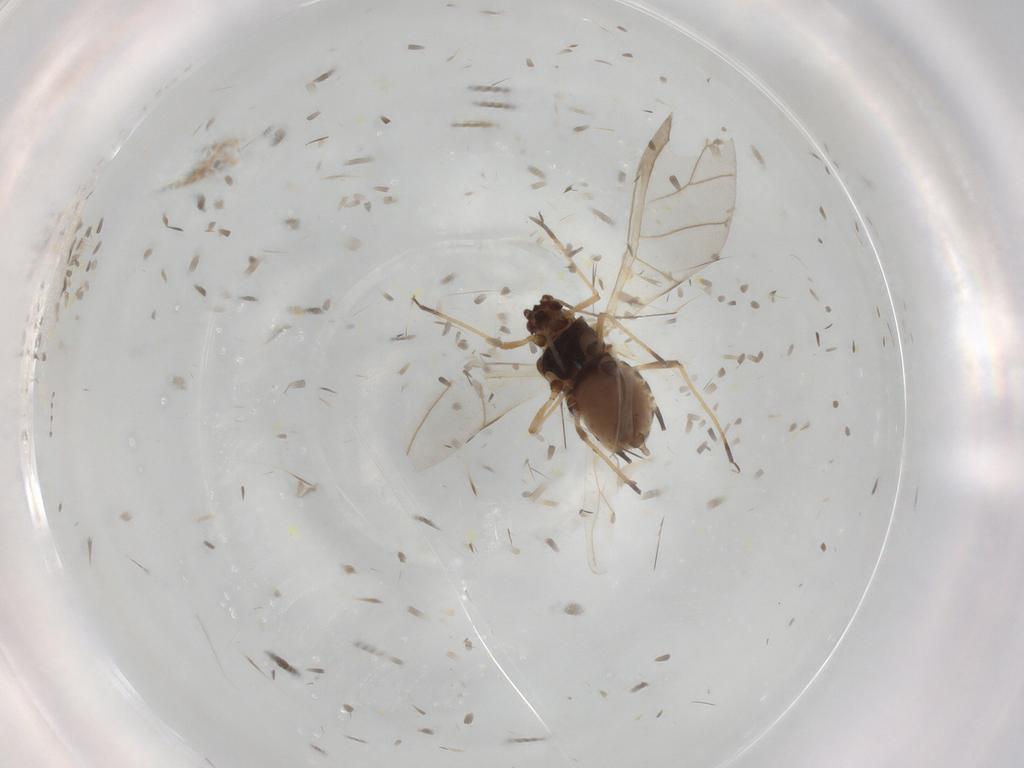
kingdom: Animalia
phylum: Arthropoda
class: Insecta
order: Hemiptera
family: Aphididae
